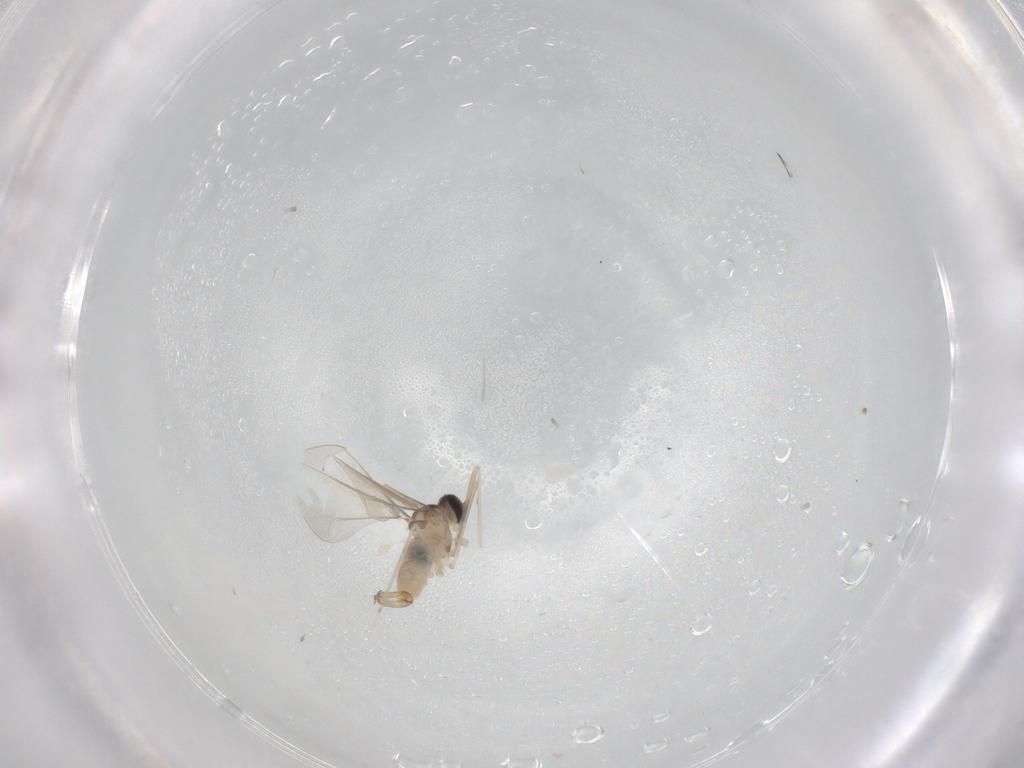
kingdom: Animalia
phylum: Arthropoda
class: Insecta
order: Diptera
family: Cecidomyiidae
